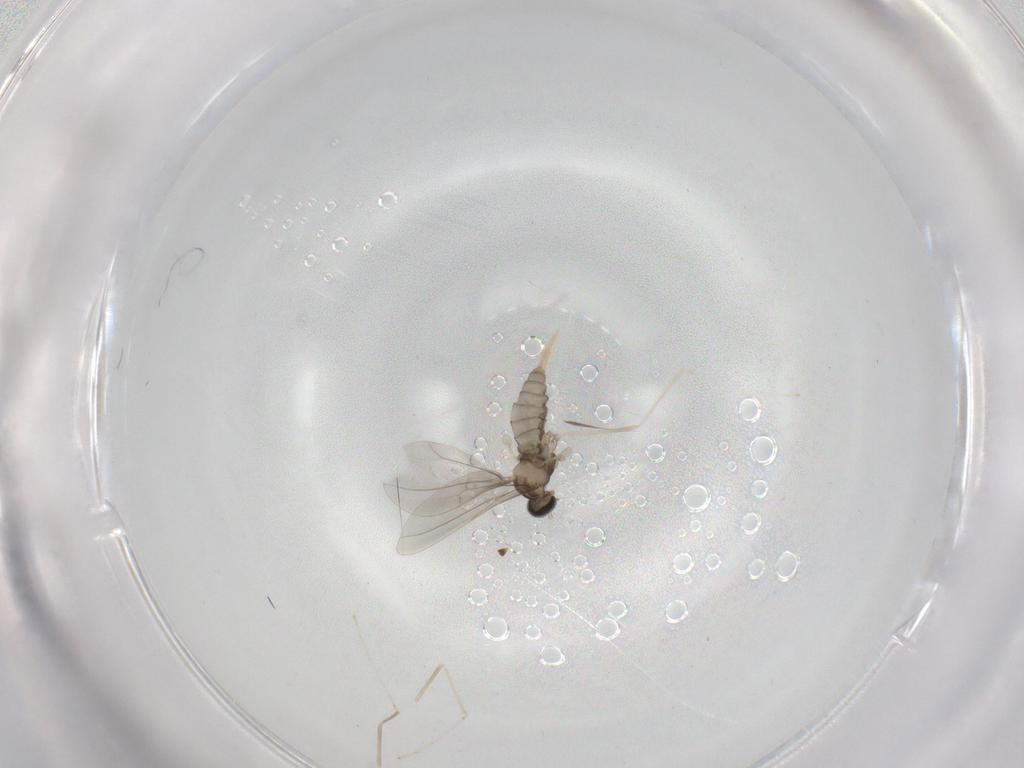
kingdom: Animalia
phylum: Arthropoda
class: Insecta
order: Diptera
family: Cecidomyiidae
